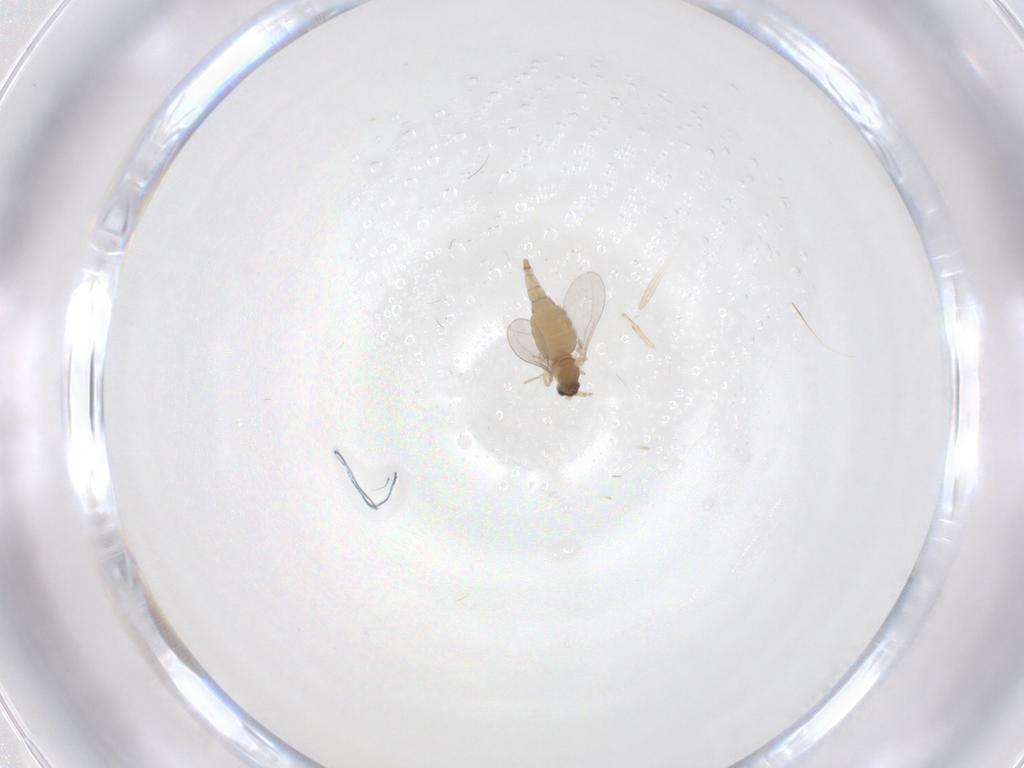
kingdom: Animalia
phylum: Arthropoda
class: Insecta
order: Diptera
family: Cecidomyiidae
